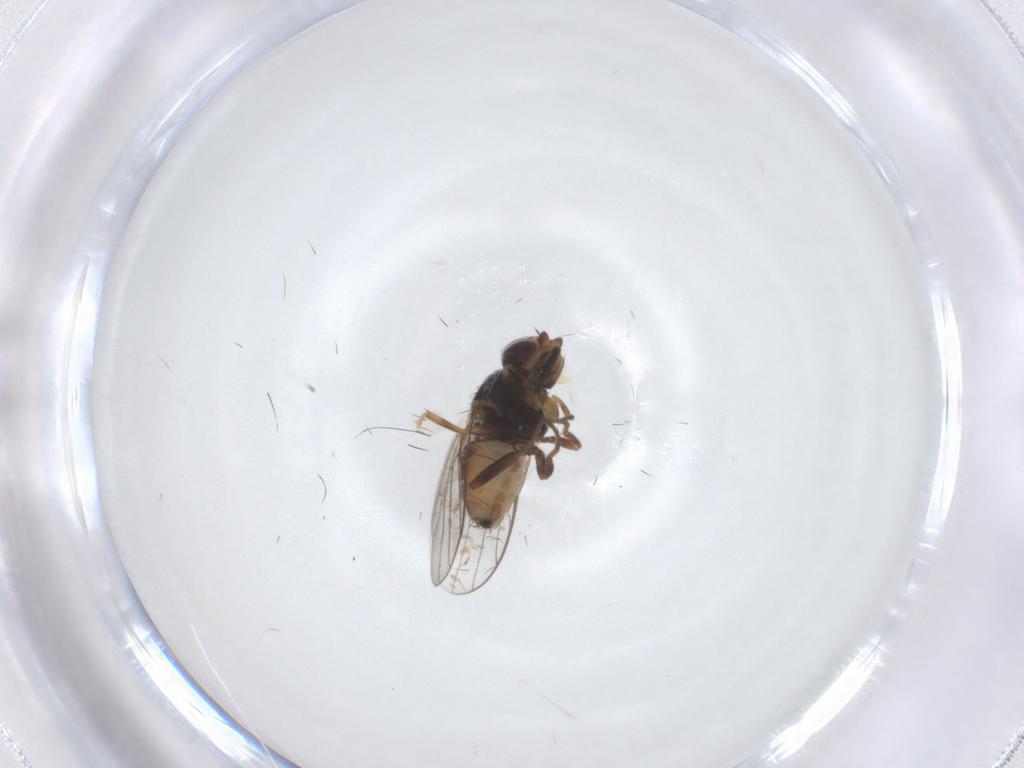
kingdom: Animalia
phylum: Arthropoda
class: Insecta
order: Diptera
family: Chloropidae
